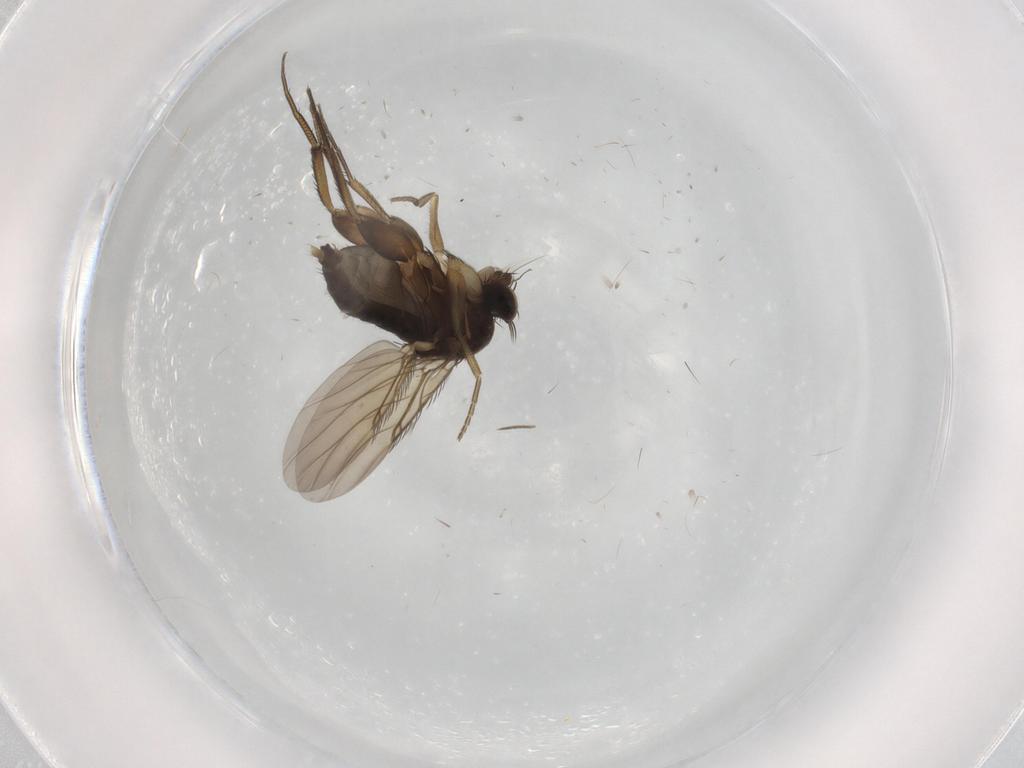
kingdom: Animalia
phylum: Arthropoda
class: Insecta
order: Diptera
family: Phoridae
